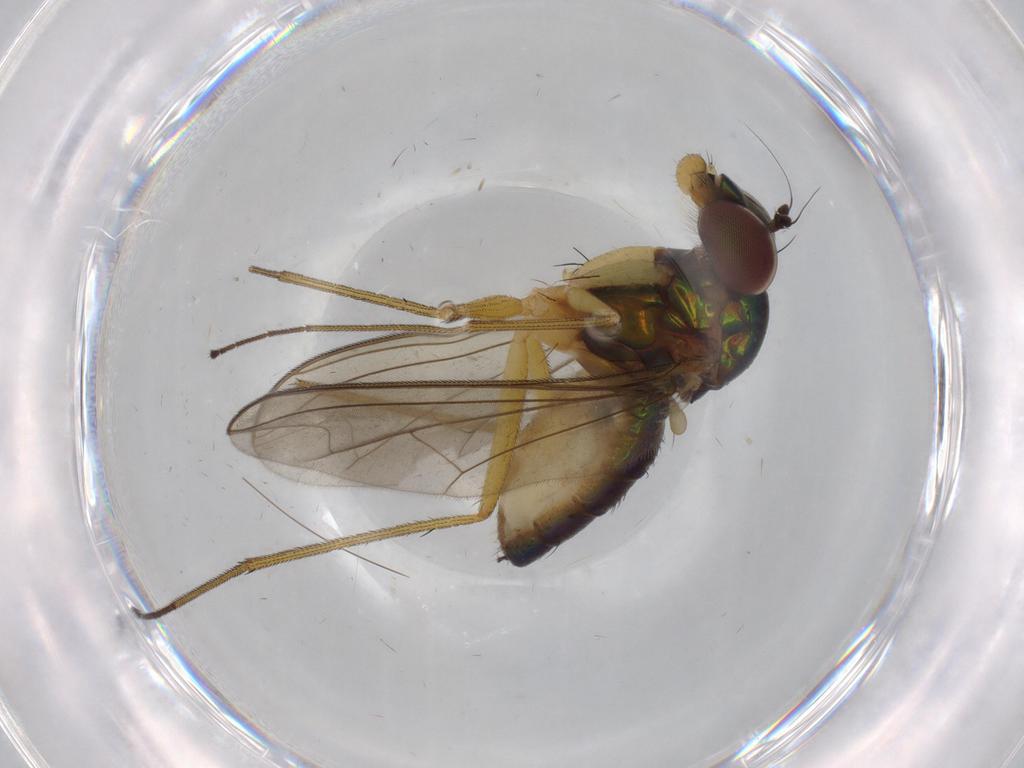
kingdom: Animalia
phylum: Arthropoda
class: Insecta
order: Diptera
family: Dolichopodidae
